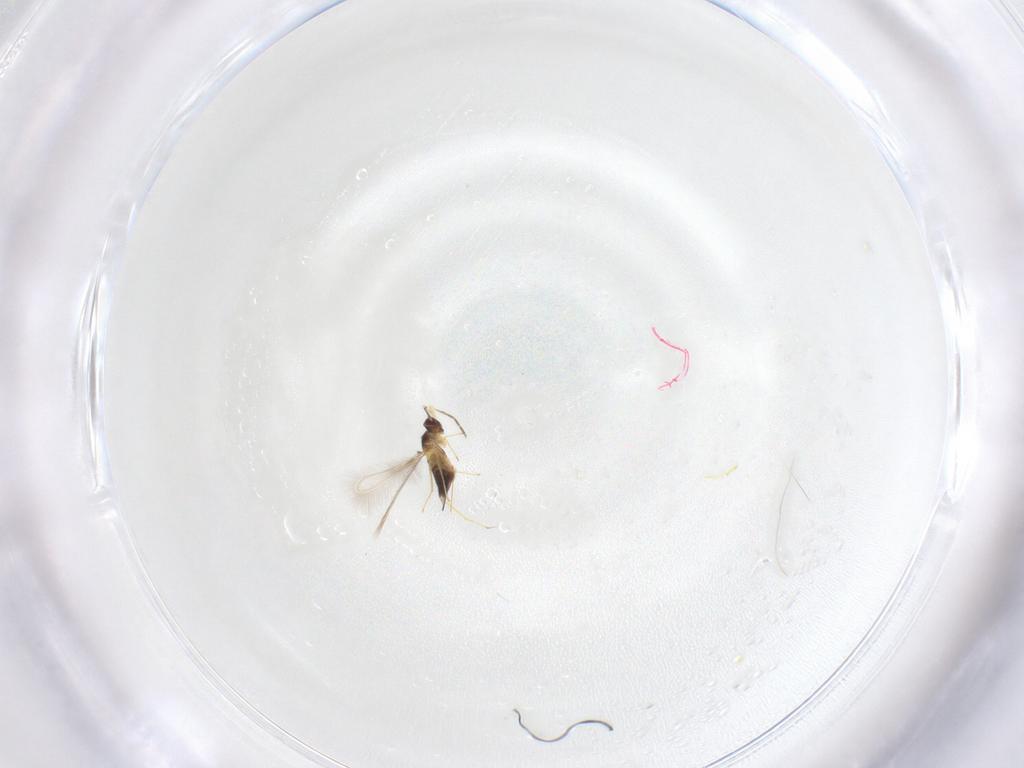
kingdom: Animalia
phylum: Arthropoda
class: Insecta
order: Hymenoptera
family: Mymaridae
